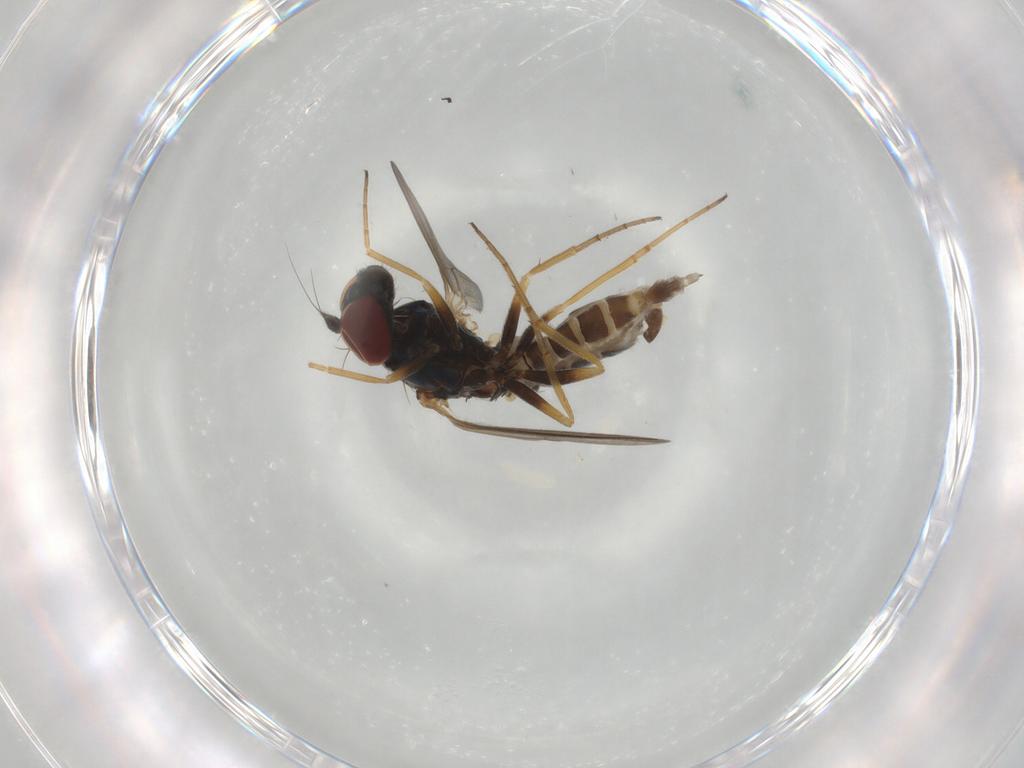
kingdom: Animalia
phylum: Arthropoda
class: Insecta
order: Diptera
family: Dolichopodidae
